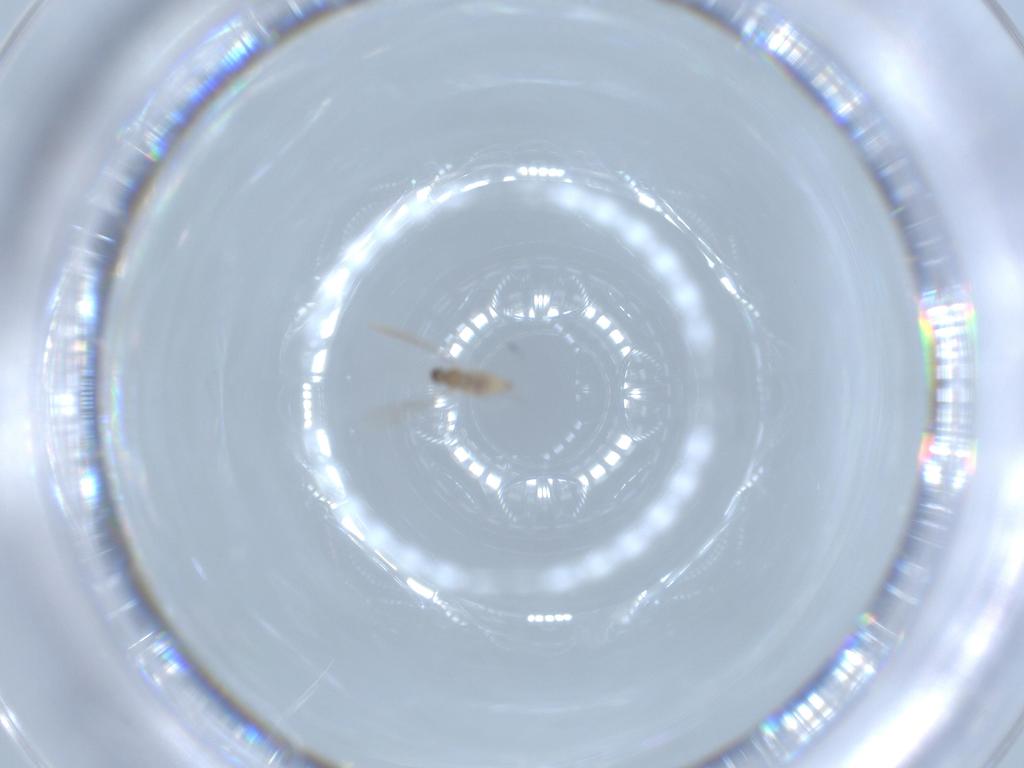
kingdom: Animalia
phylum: Arthropoda
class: Insecta
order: Diptera
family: Cecidomyiidae
